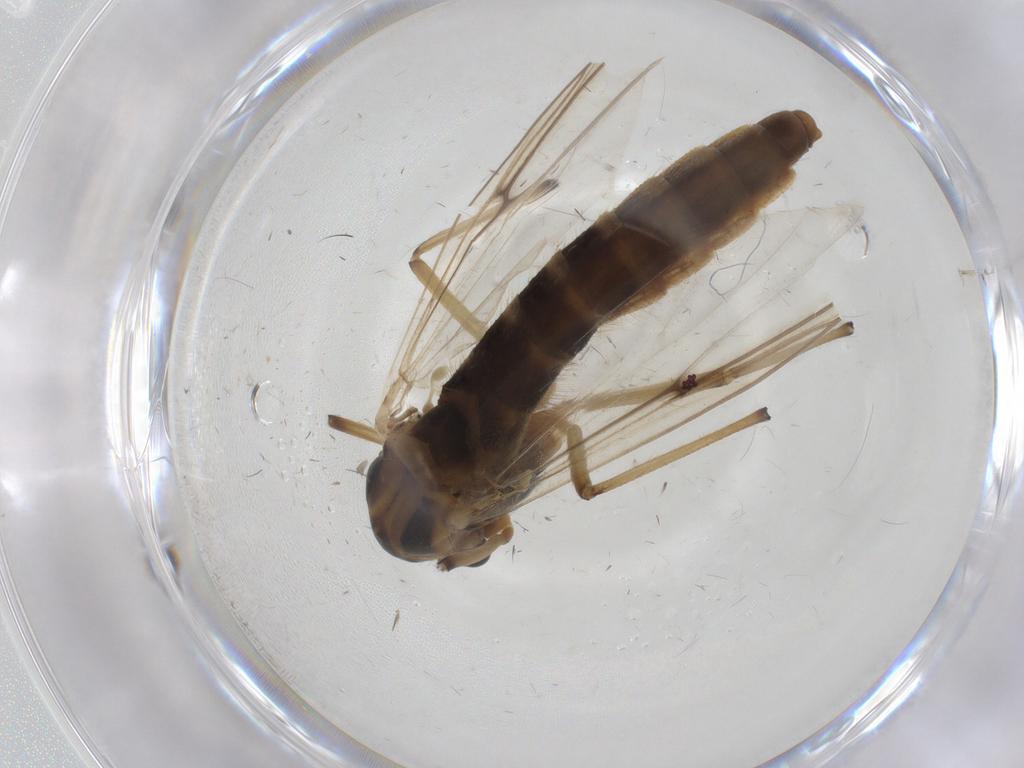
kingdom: Animalia
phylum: Arthropoda
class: Insecta
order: Diptera
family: Chironomidae
